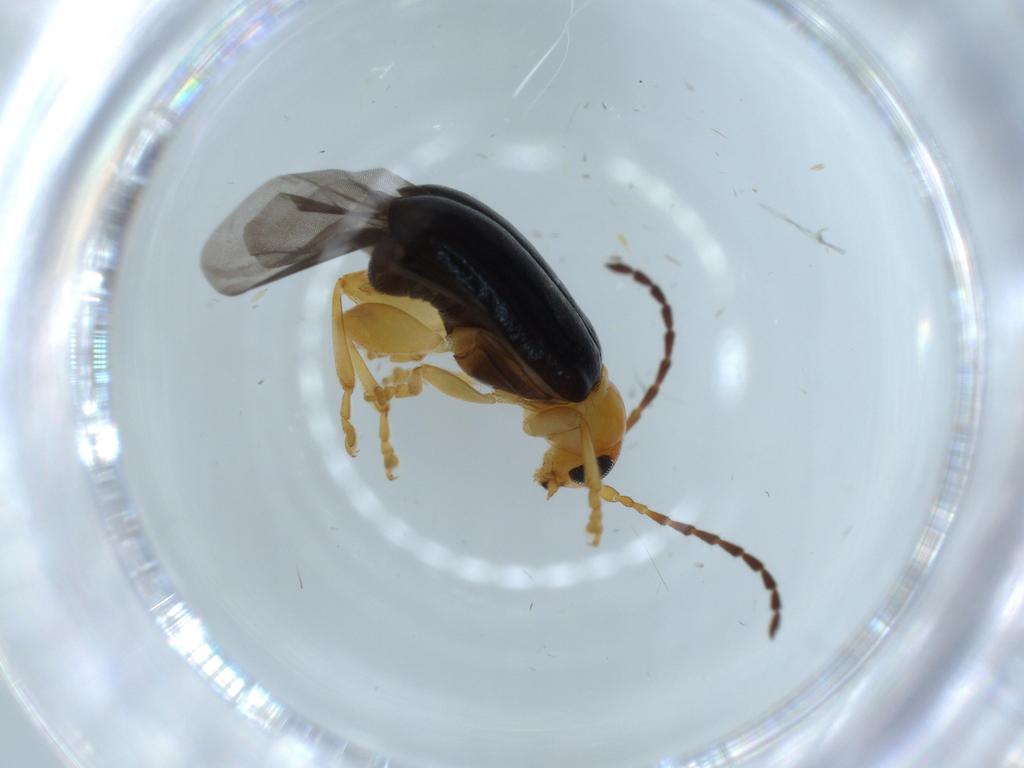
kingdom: Animalia
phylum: Arthropoda
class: Insecta
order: Coleoptera
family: Chrysomelidae
